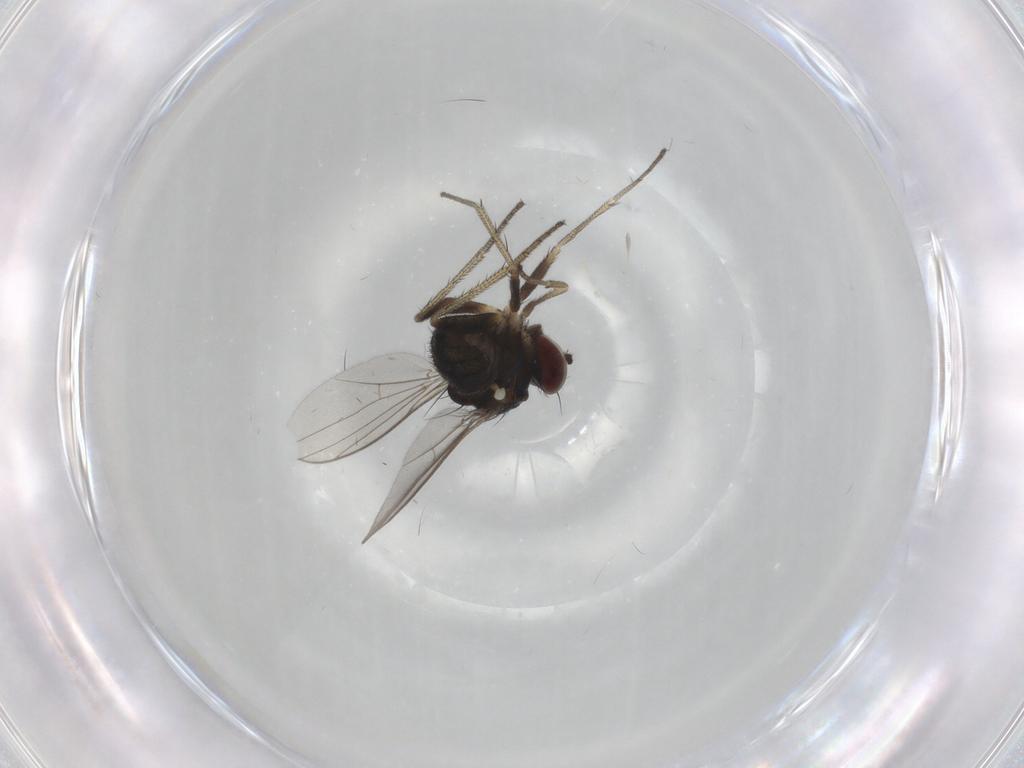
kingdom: Animalia
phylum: Arthropoda
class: Insecta
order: Diptera
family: Dolichopodidae
